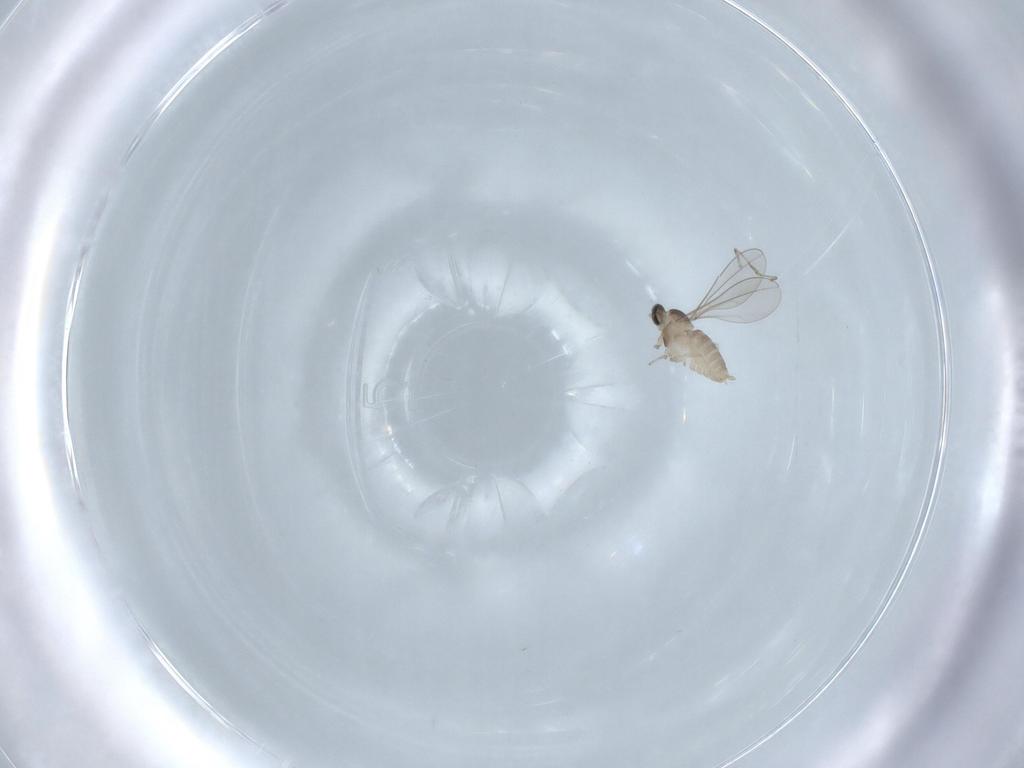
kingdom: Animalia
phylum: Arthropoda
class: Insecta
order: Diptera
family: Cecidomyiidae
